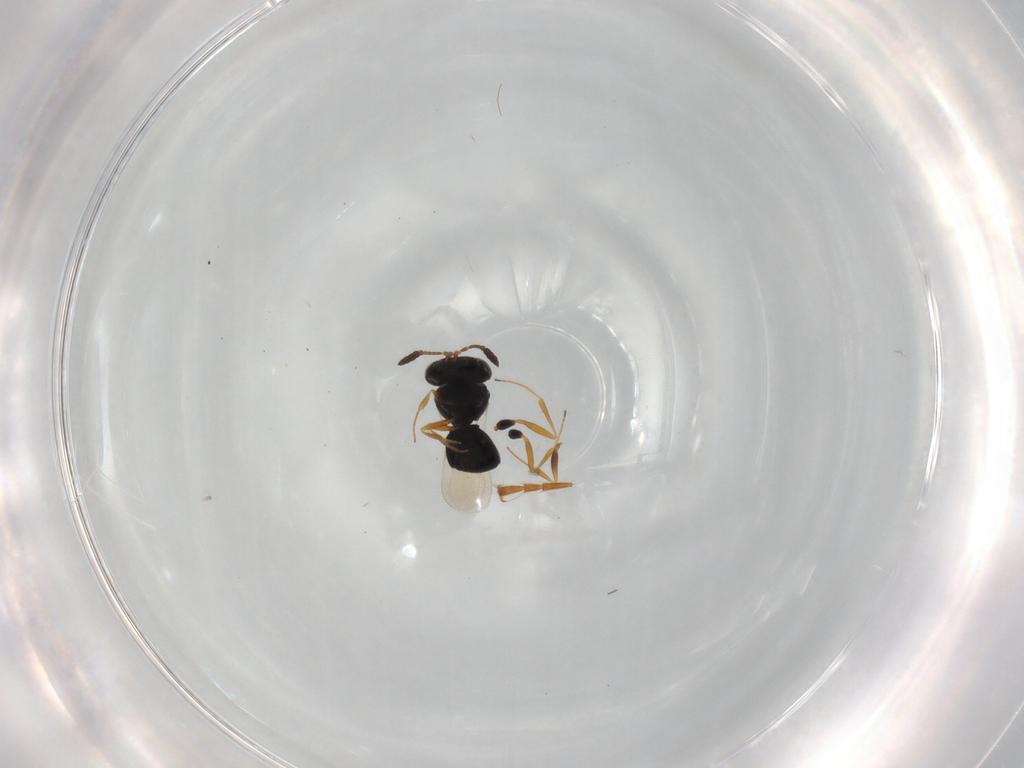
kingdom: Animalia
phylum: Arthropoda
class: Insecta
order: Hymenoptera
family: Scelionidae
